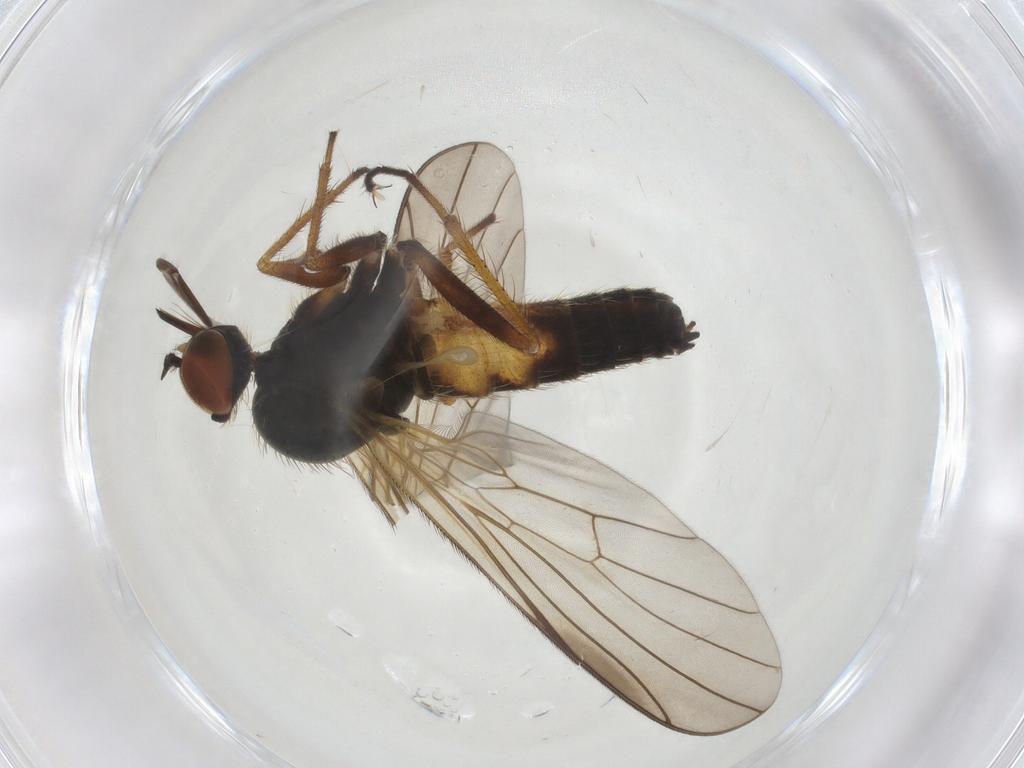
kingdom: Animalia
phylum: Arthropoda
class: Insecta
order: Diptera
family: Empididae
